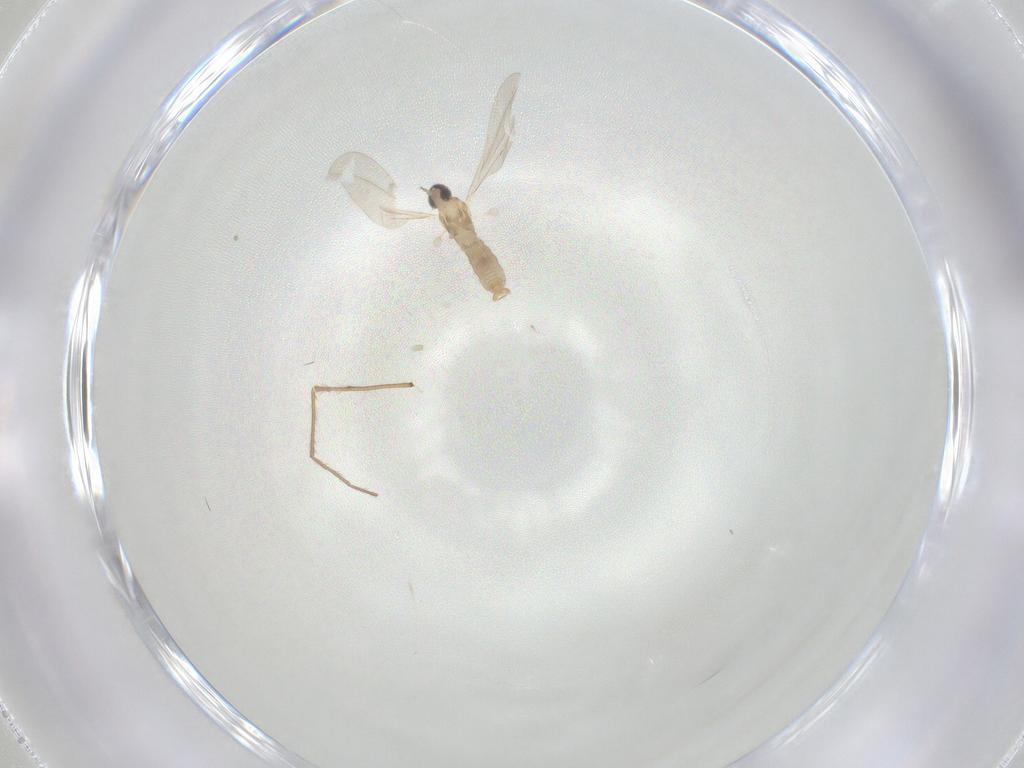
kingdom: Animalia
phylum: Arthropoda
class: Insecta
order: Diptera
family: Cecidomyiidae
